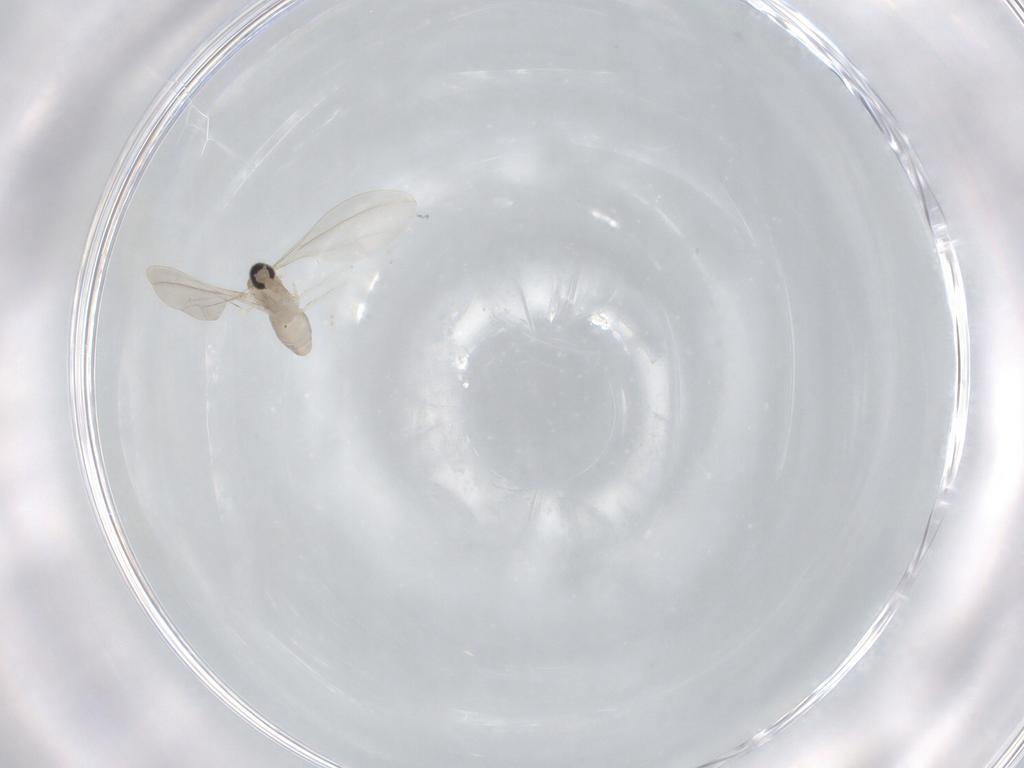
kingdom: Animalia
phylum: Arthropoda
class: Insecta
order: Diptera
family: Cecidomyiidae
